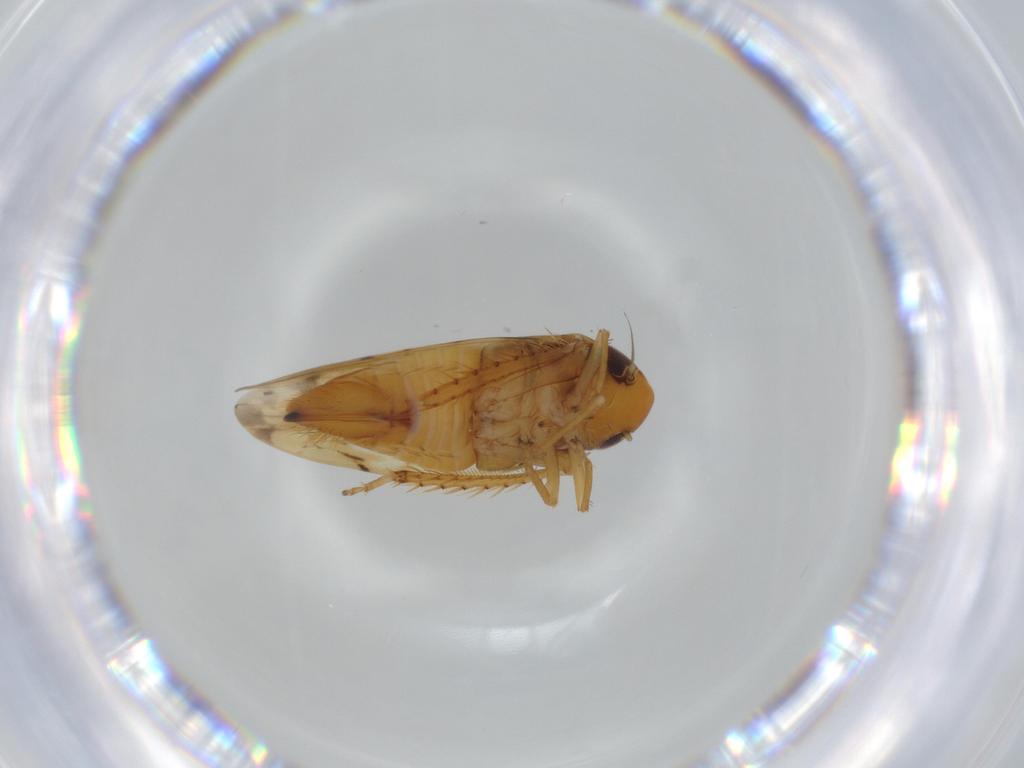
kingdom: Animalia
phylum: Arthropoda
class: Insecta
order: Hemiptera
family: Cicadellidae
